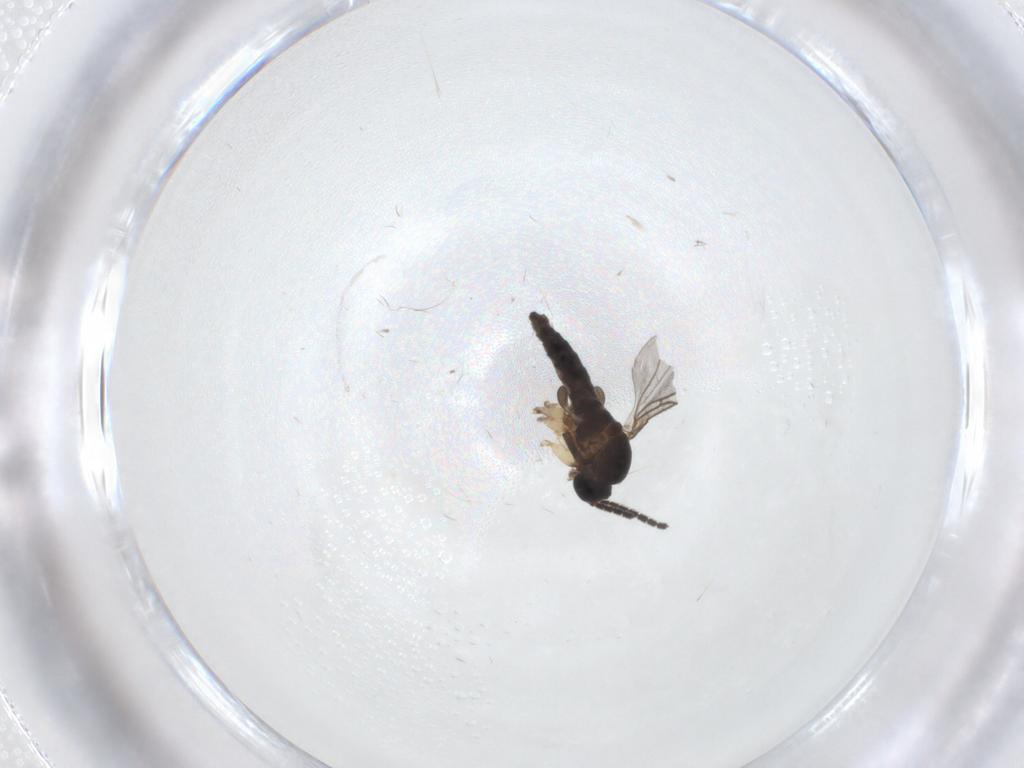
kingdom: Animalia
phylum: Arthropoda
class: Insecta
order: Diptera
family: Sciaridae
